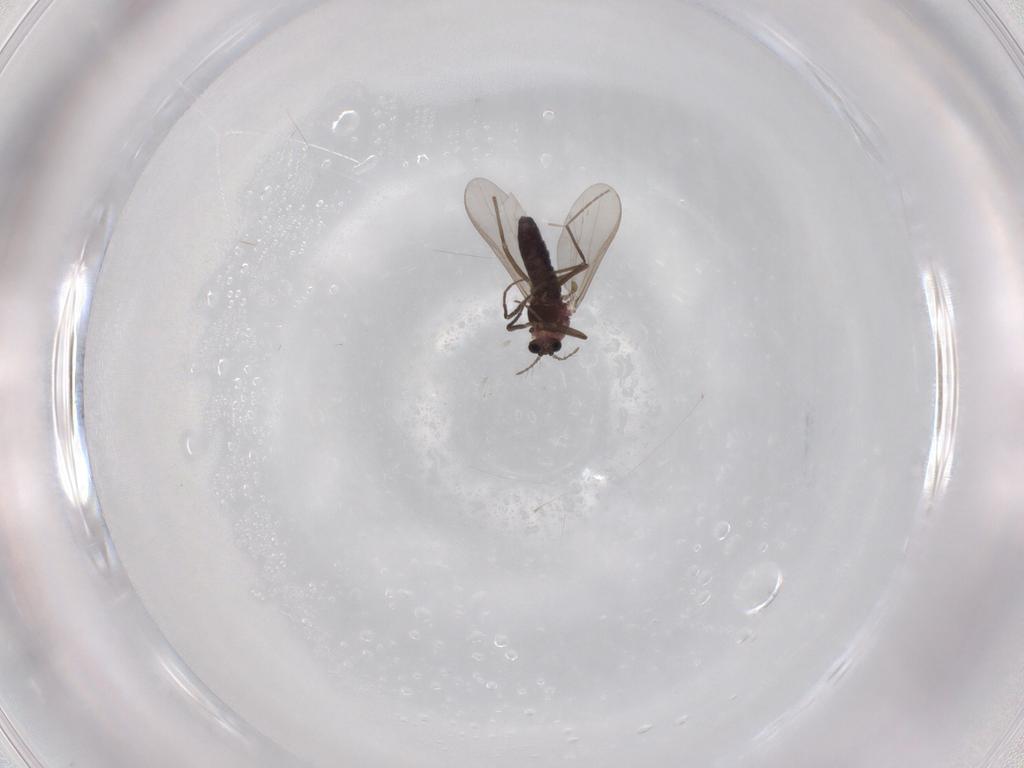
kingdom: Animalia
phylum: Arthropoda
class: Insecta
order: Diptera
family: Chironomidae
